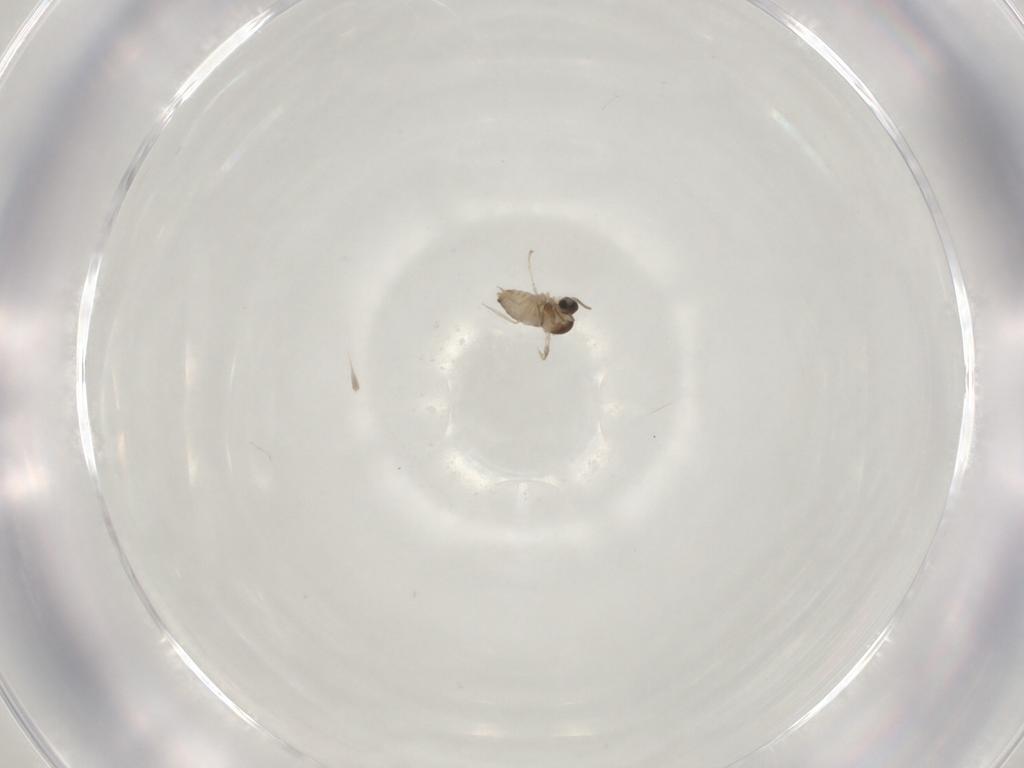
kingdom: Animalia
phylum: Arthropoda
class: Insecta
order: Diptera
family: Cecidomyiidae
